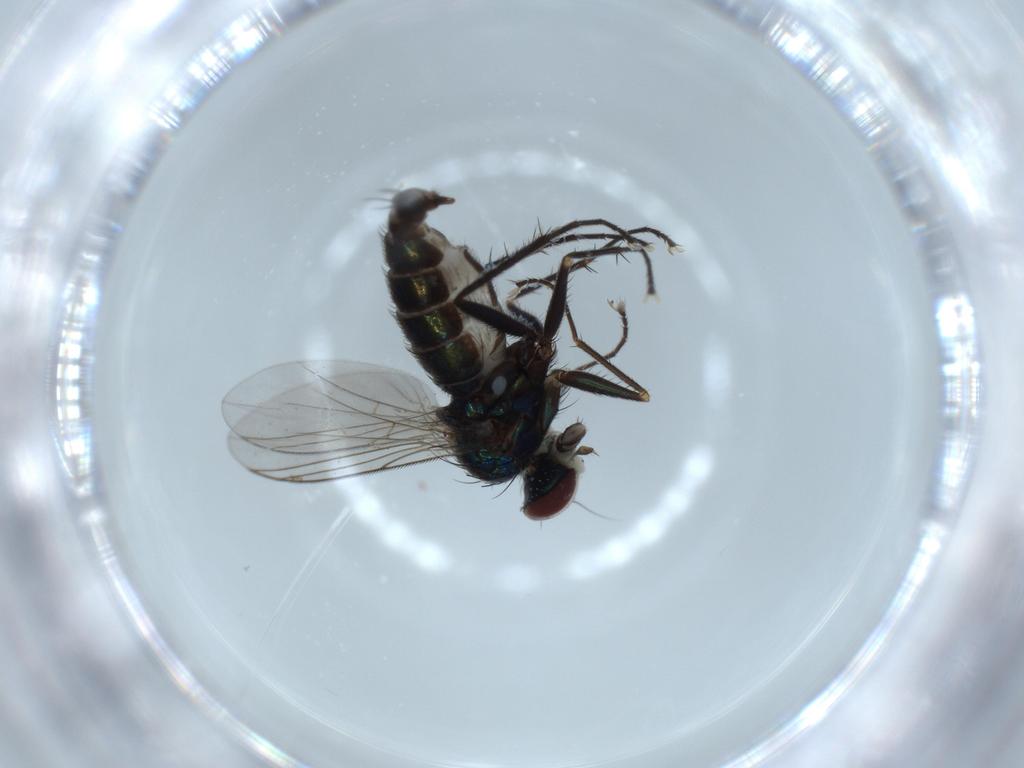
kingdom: Animalia
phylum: Arthropoda
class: Insecta
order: Diptera
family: Dolichopodidae
